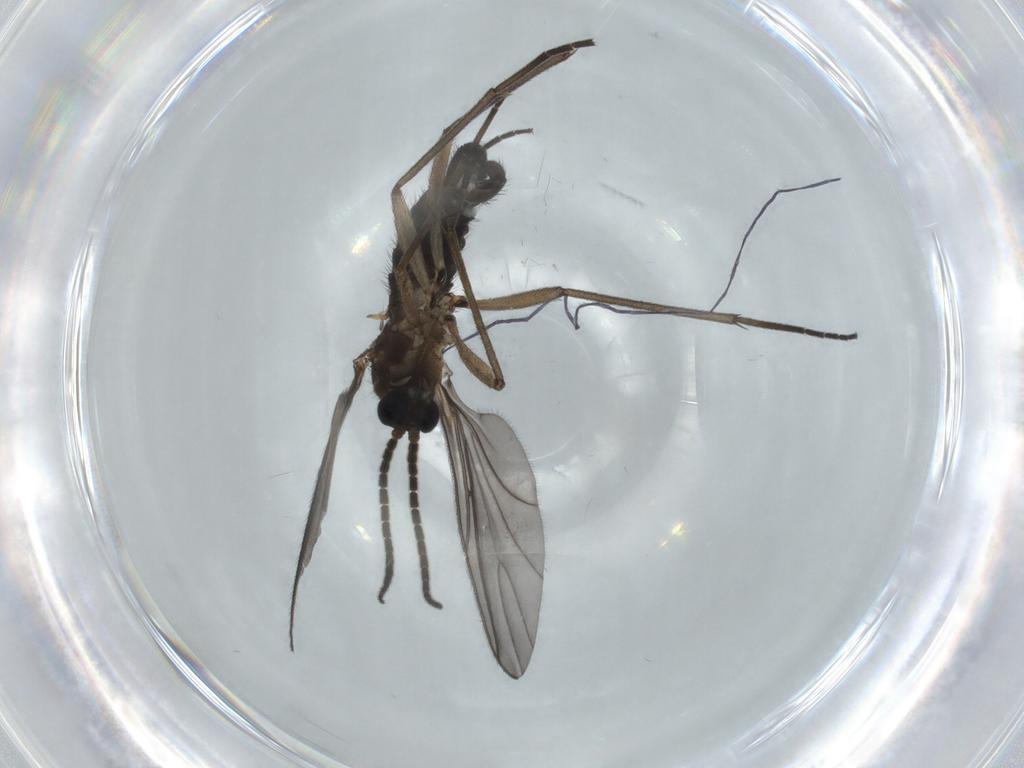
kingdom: Animalia
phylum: Arthropoda
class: Insecta
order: Diptera
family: Sciaridae
